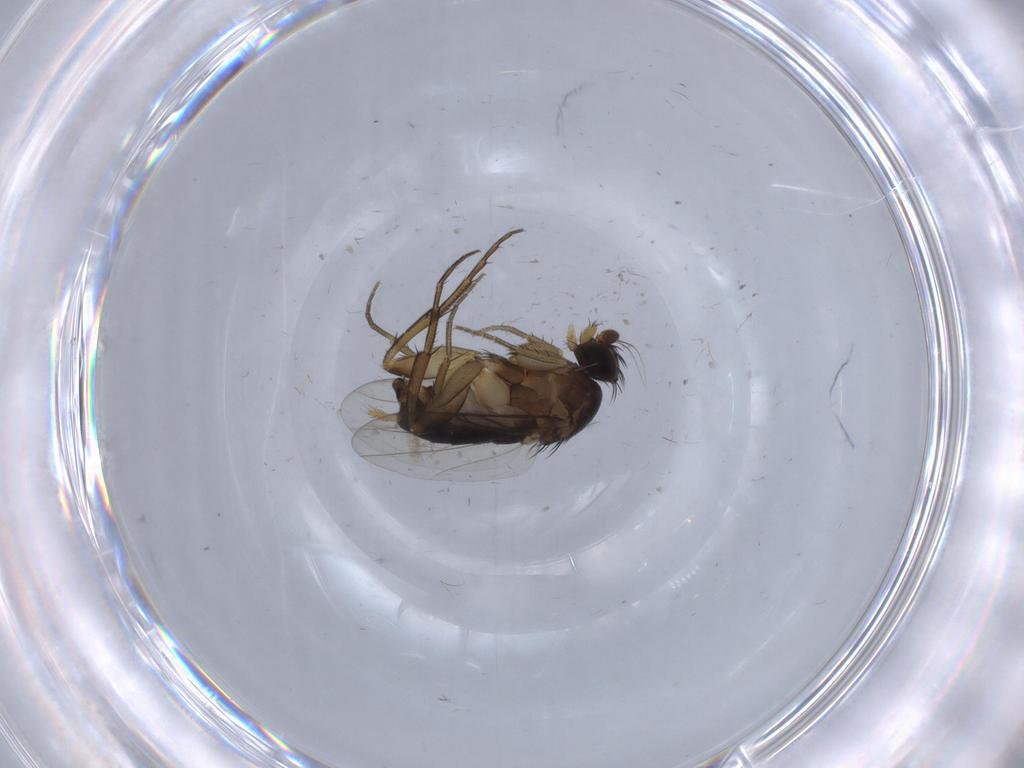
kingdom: Animalia
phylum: Arthropoda
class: Insecta
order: Diptera
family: Phoridae
